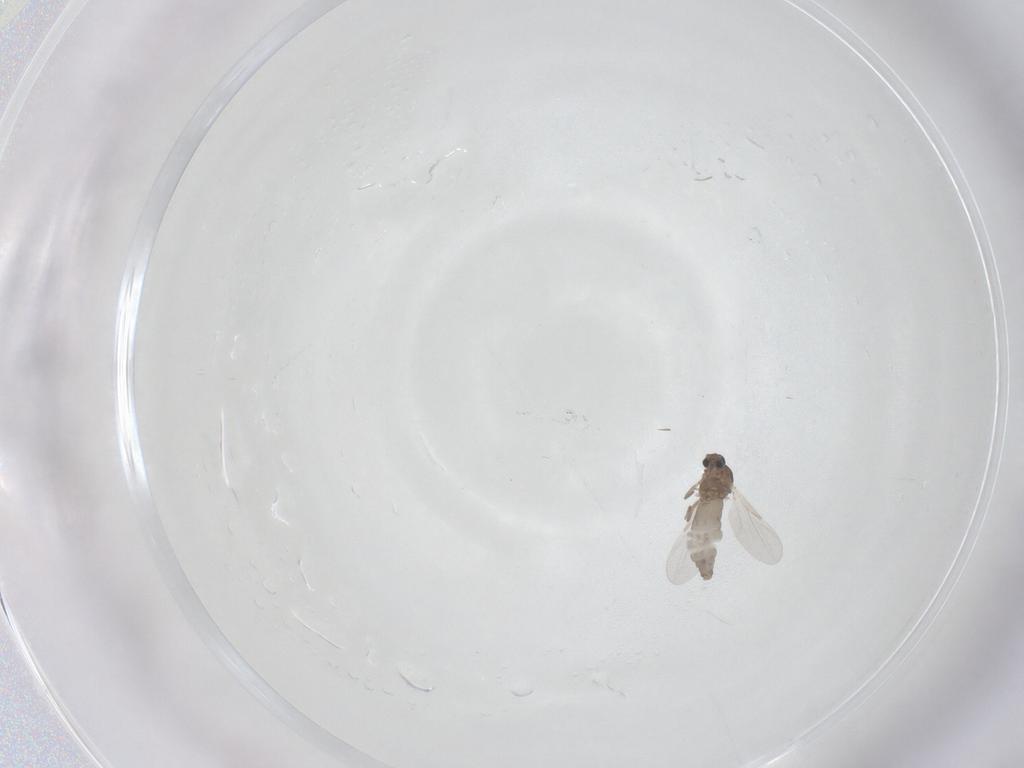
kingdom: Animalia
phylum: Arthropoda
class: Insecta
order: Diptera
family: Ceratopogonidae
